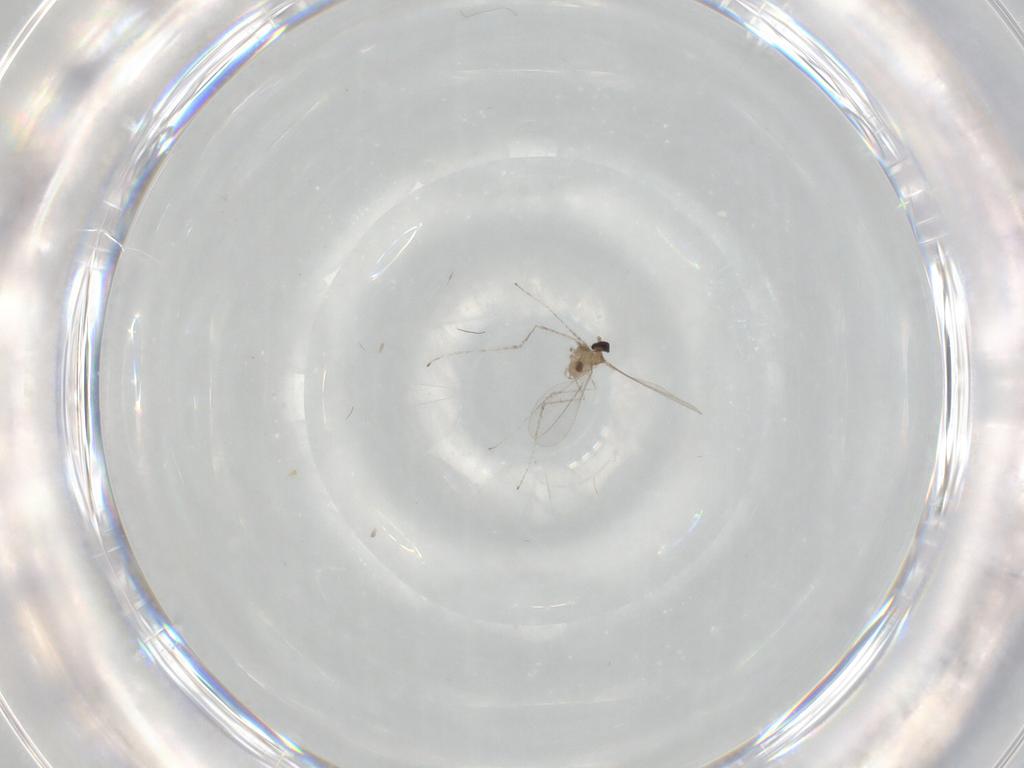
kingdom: Animalia
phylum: Arthropoda
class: Insecta
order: Diptera
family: Cecidomyiidae
